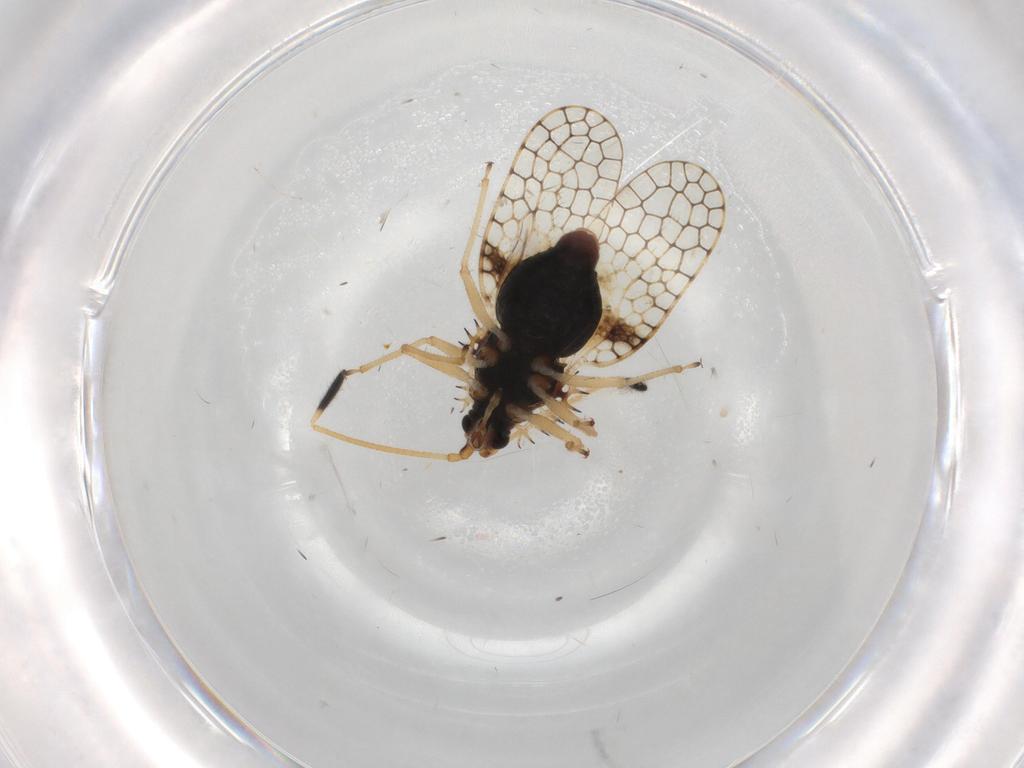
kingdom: Animalia
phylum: Arthropoda
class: Insecta
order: Hemiptera
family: Tingidae
